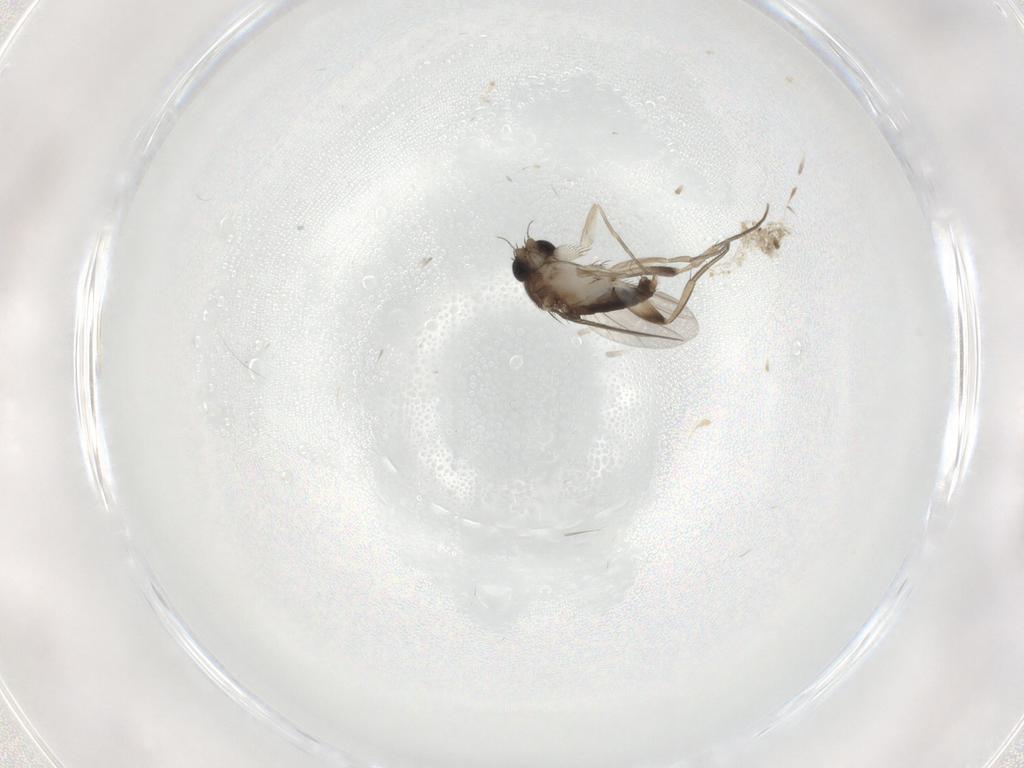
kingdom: Animalia
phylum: Arthropoda
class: Insecta
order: Diptera
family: Phoridae
